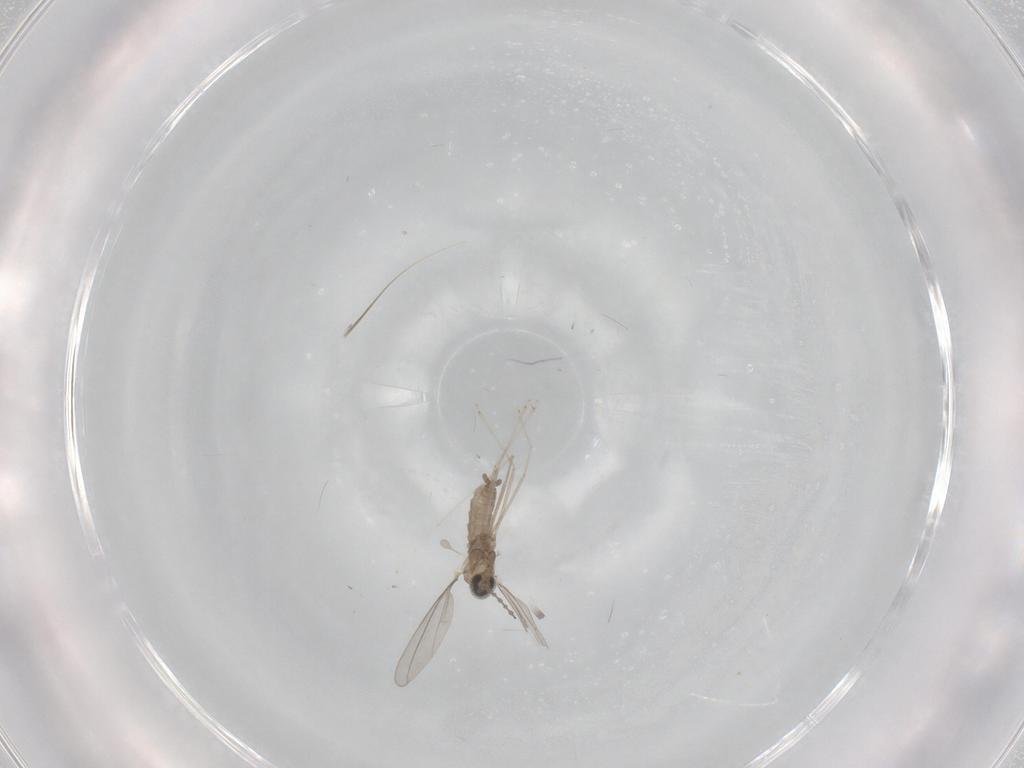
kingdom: Animalia
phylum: Arthropoda
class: Insecta
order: Diptera
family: Cecidomyiidae
